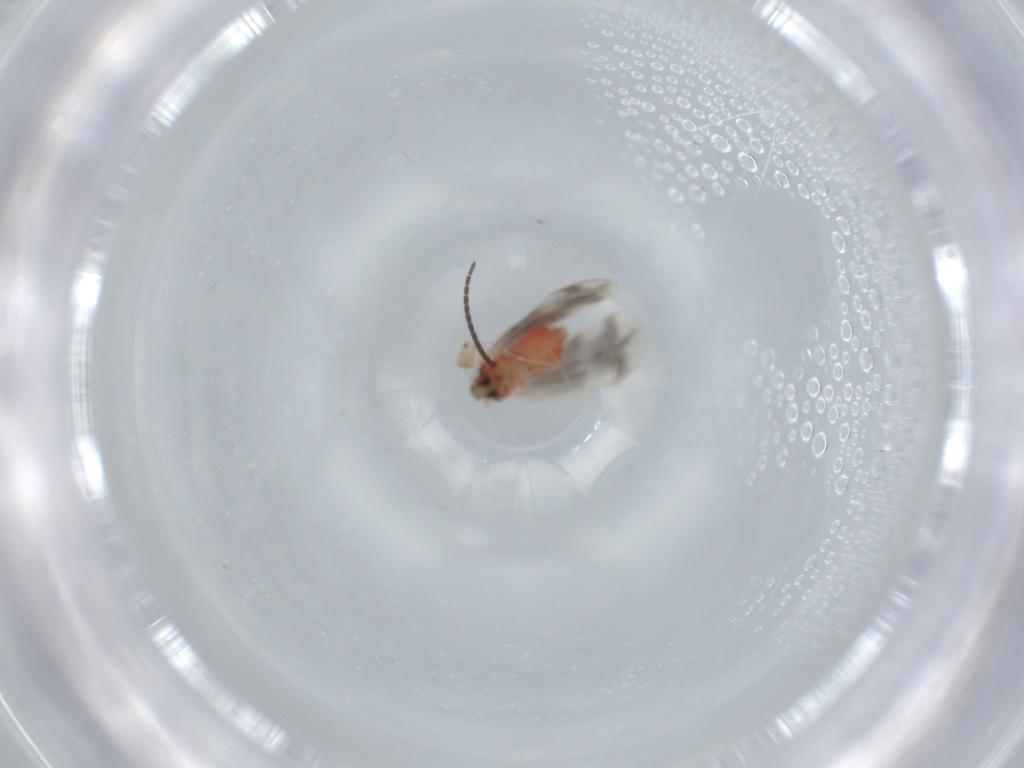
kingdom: Animalia
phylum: Arthropoda
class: Insecta
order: Hemiptera
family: Aleyrodidae
